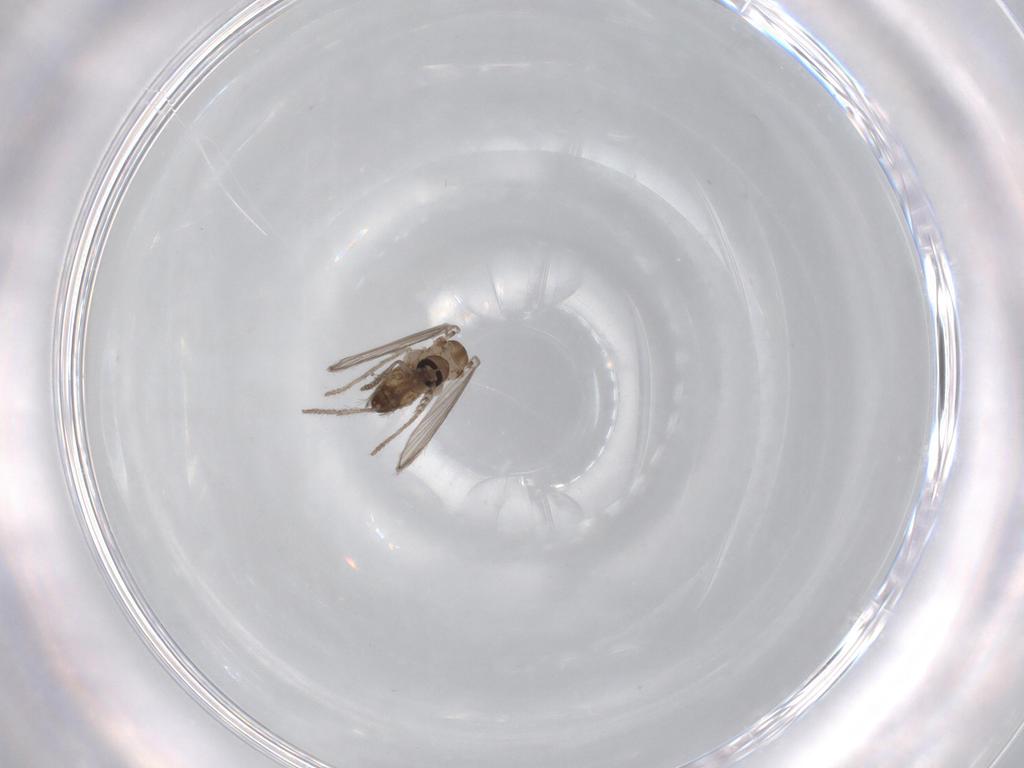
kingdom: Animalia
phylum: Arthropoda
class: Insecta
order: Diptera
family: Psychodidae
